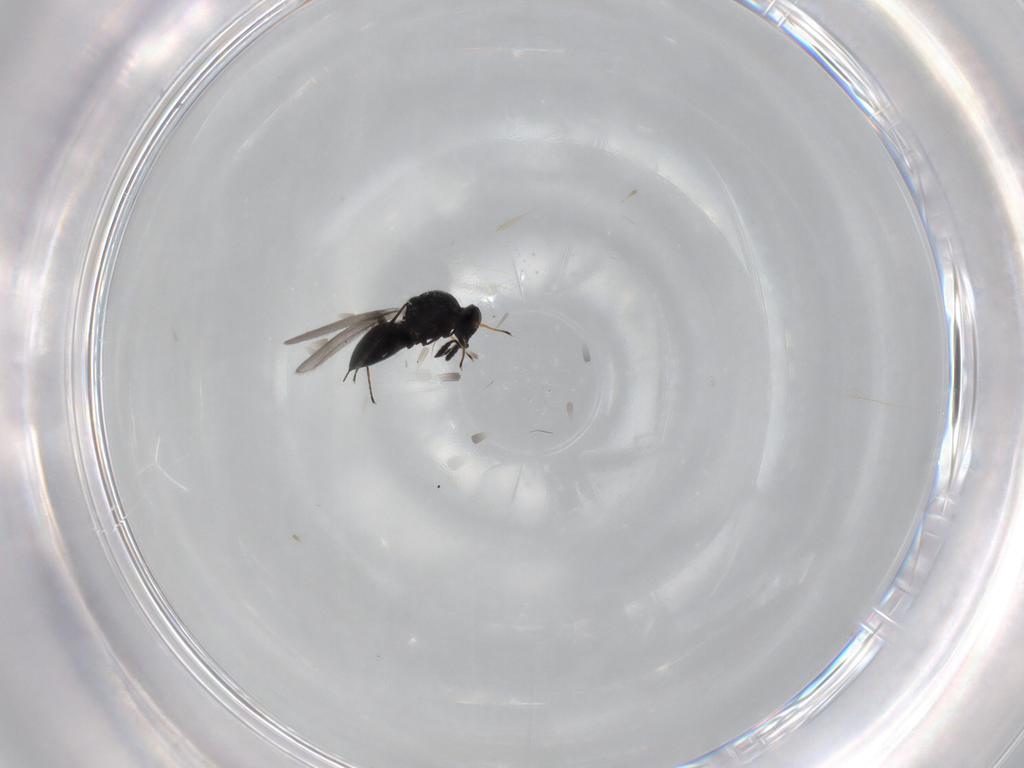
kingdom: Animalia
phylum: Arthropoda
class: Insecta
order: Hymenoptera
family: Platygastridae
